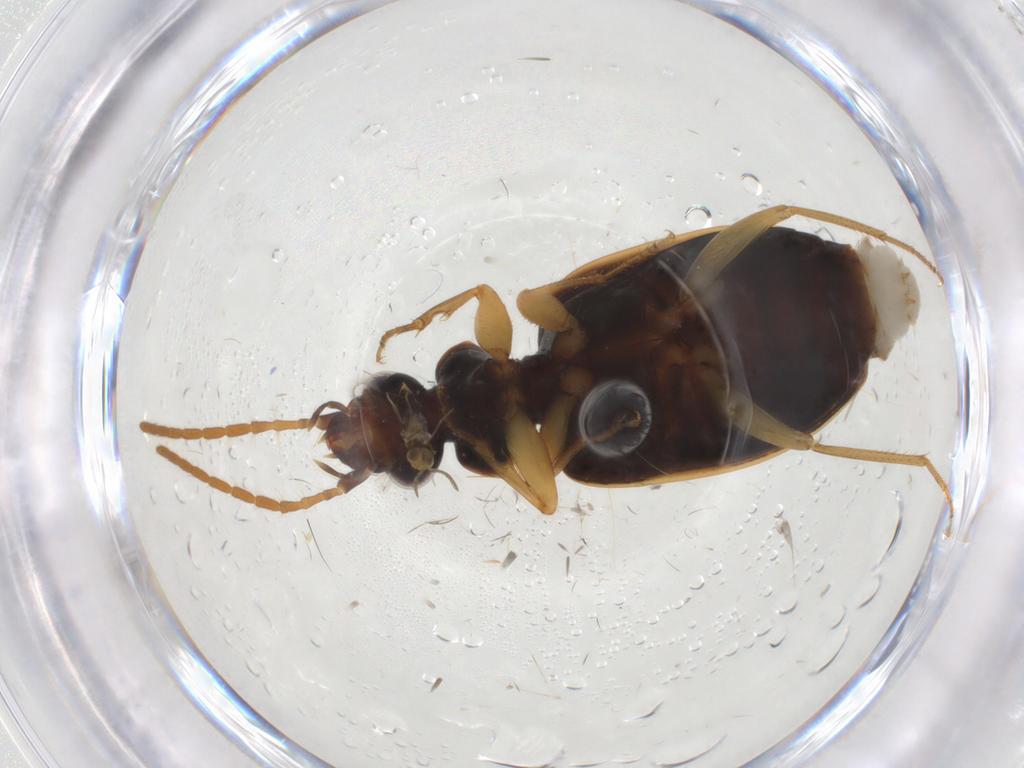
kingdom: Animalia
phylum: Arthropoda
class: Insecta
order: Coleoptera
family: Carabidae
